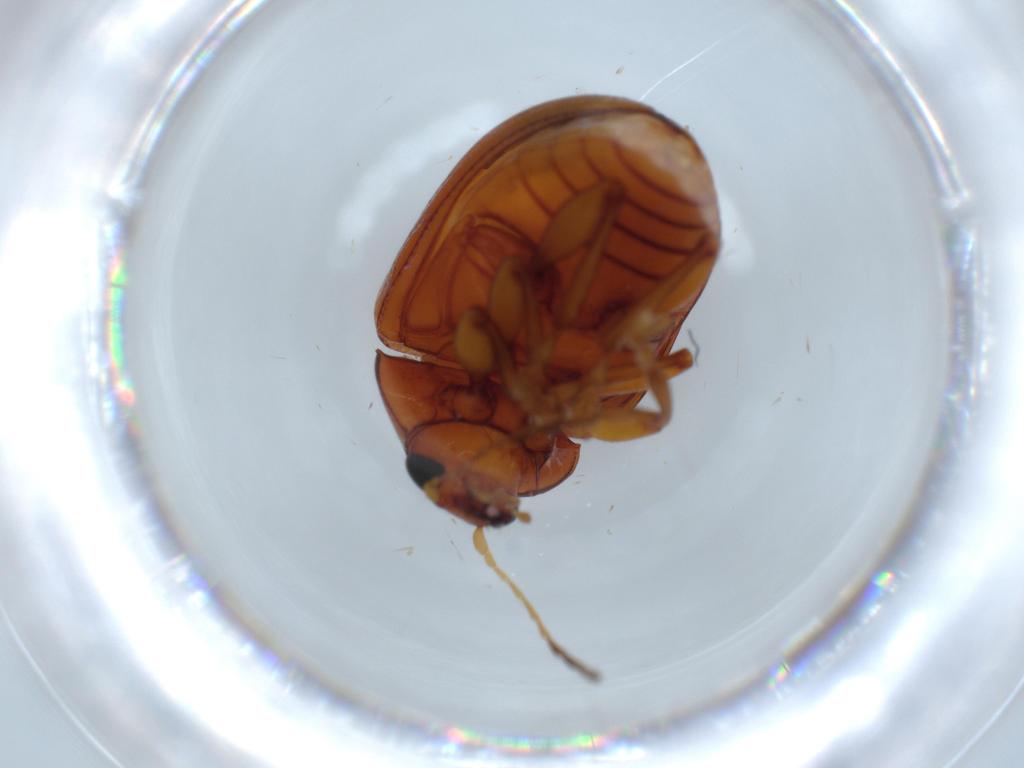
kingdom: Animalia
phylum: Arthropoda
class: Insecta
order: Coleoptera
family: Chrysomelidae
